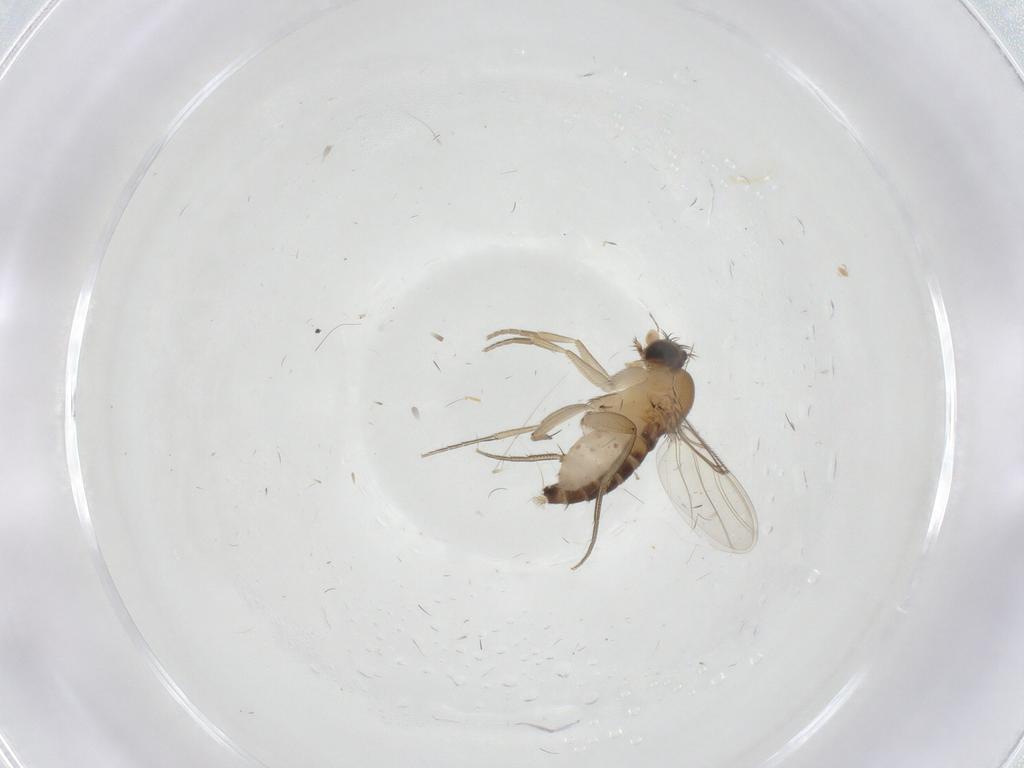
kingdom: Animalia
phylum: Arthropoda
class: Insecta
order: Diptera
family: Phoridae
